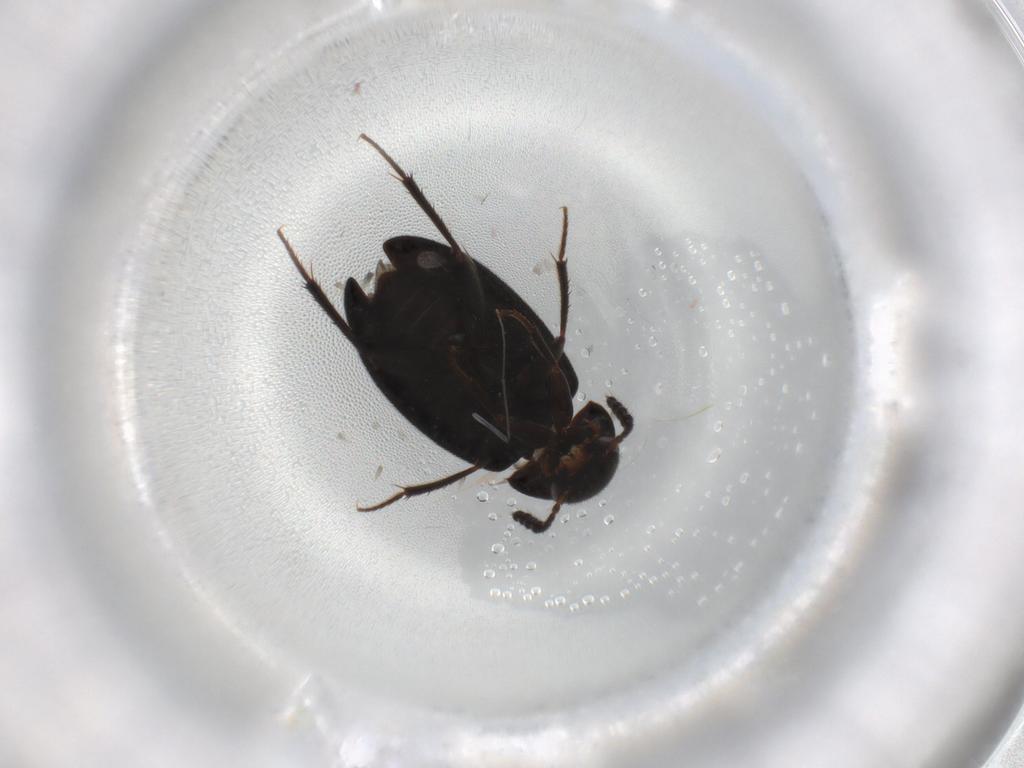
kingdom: Animalia
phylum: Arthropoda
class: Insecta
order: Coleoptera
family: Leiodidae
